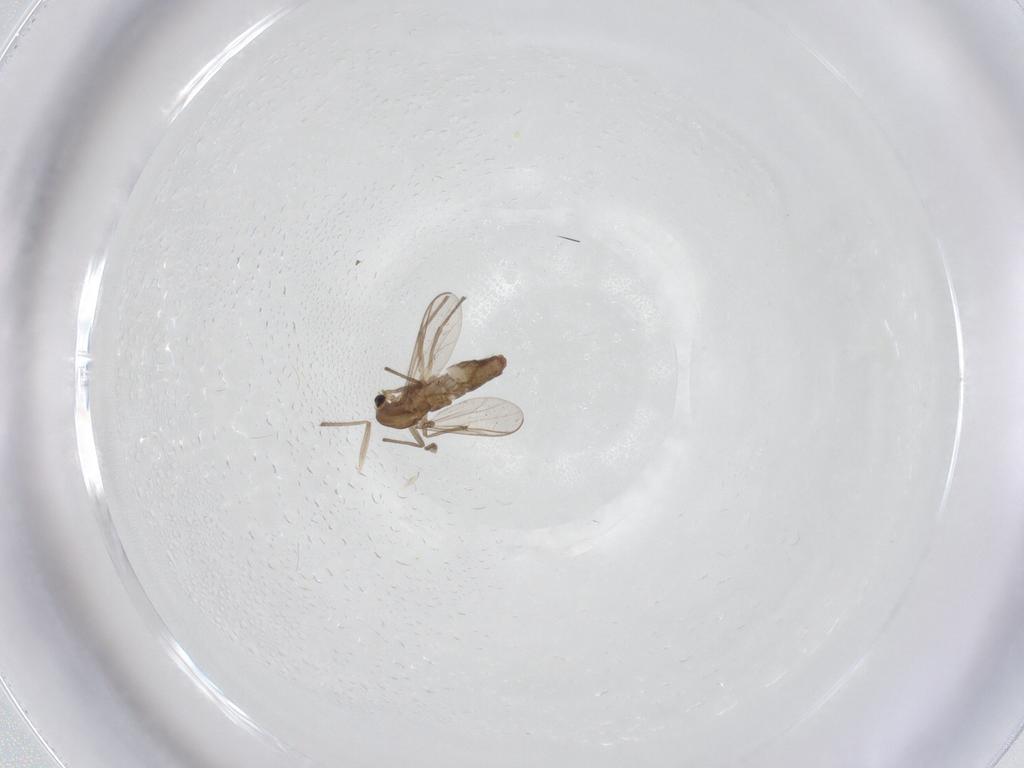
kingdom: Animalia
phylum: Arthropoda
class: Insecta
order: Diptera
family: Chironomidae
